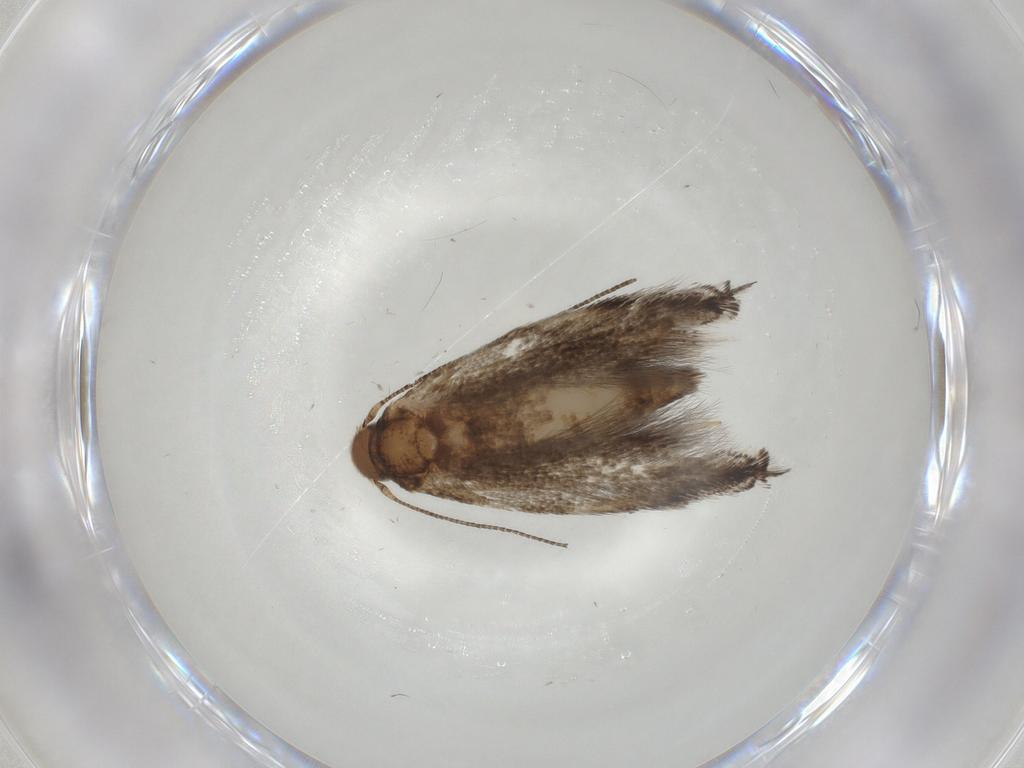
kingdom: Animalia
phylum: Arthropoda
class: Insecta
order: Lepidoptera
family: Elachistidae
